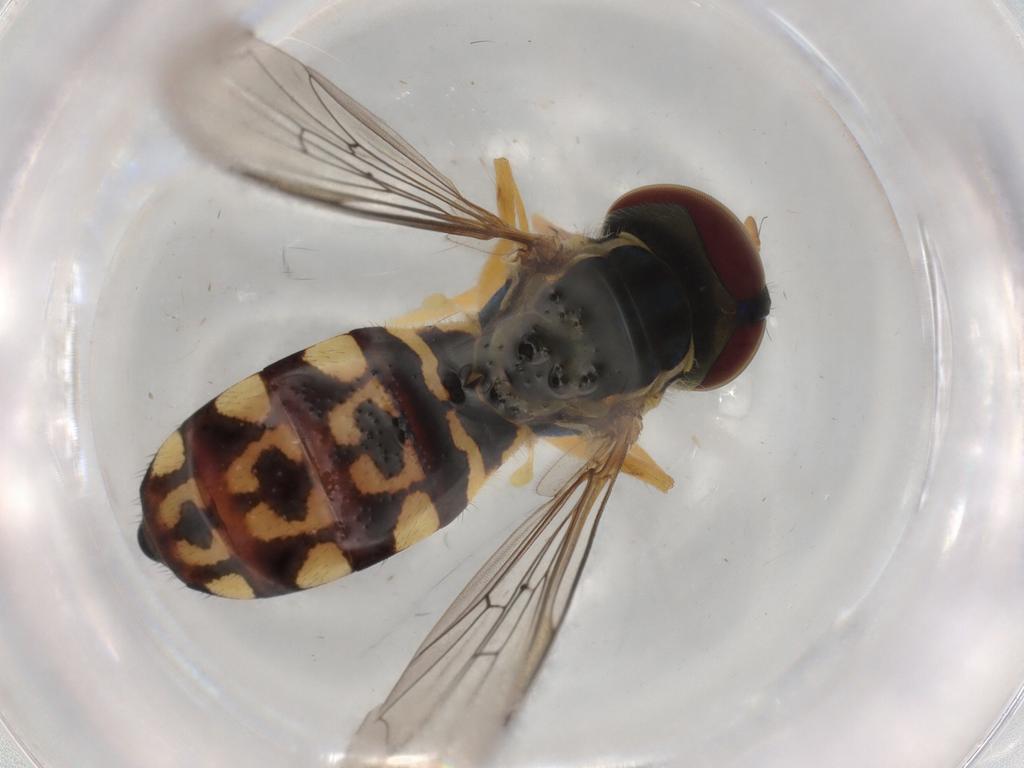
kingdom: Animalia
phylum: Arthropoda
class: Insecta
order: Diptera
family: Syrphidae
